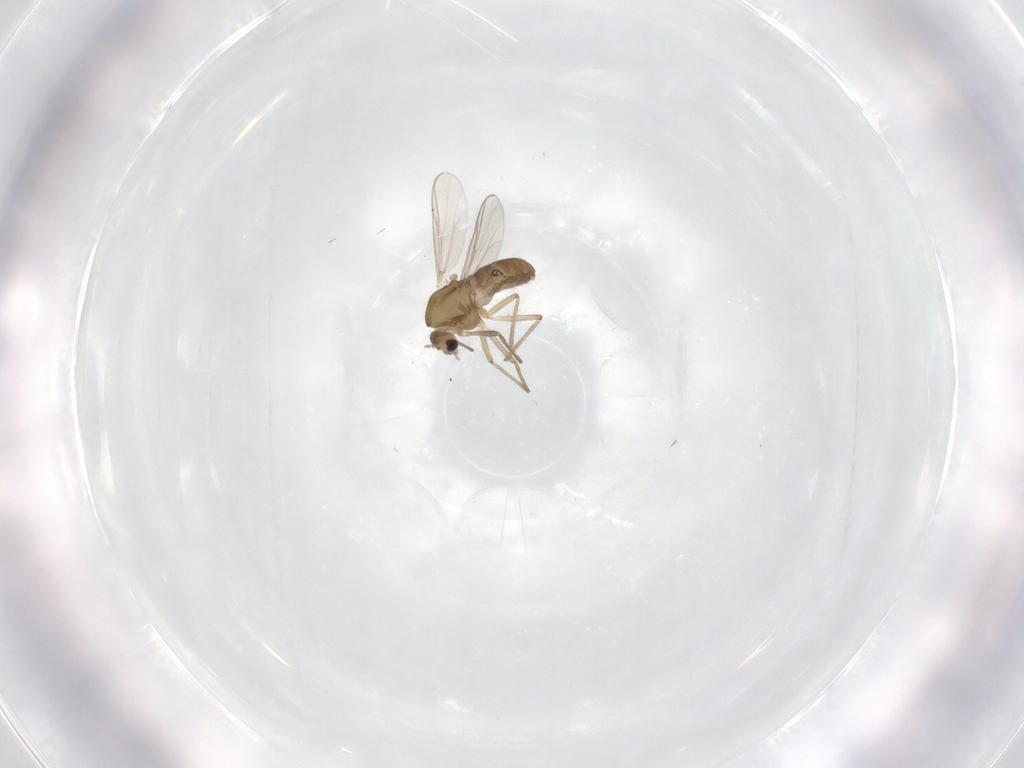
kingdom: Animalia
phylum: Arthropoda
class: Insecta
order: Diptera
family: Chironomidae
